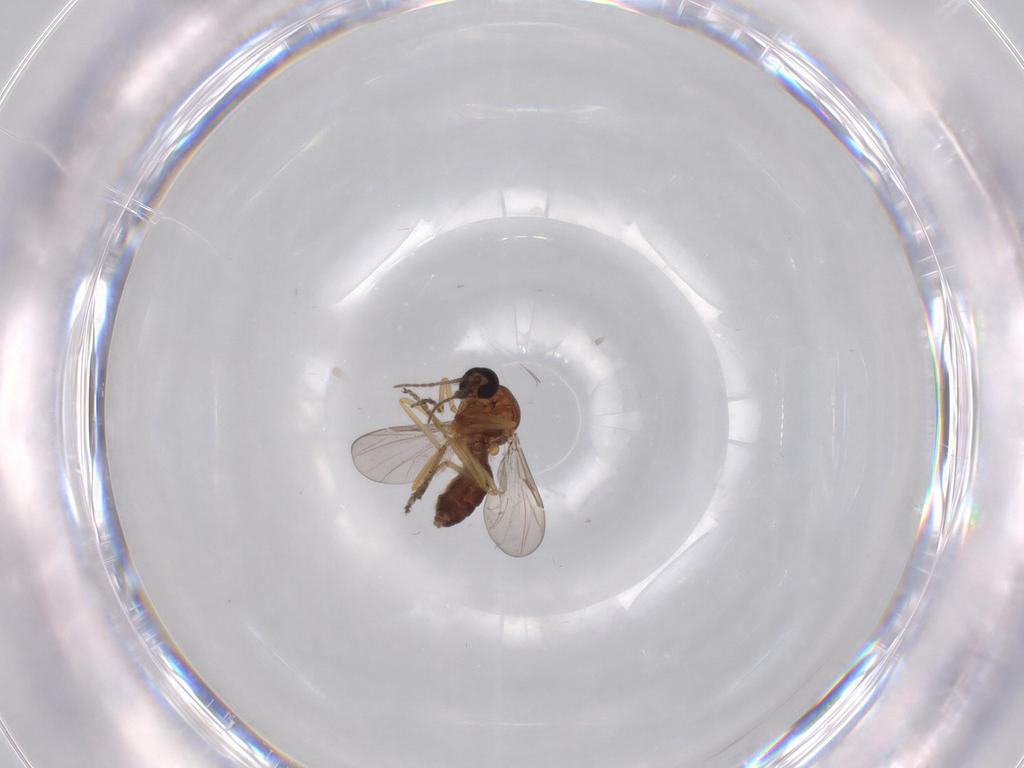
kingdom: Animalia
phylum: Arthropoda
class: Insecta
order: Diptera
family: Ceratopogonidae
